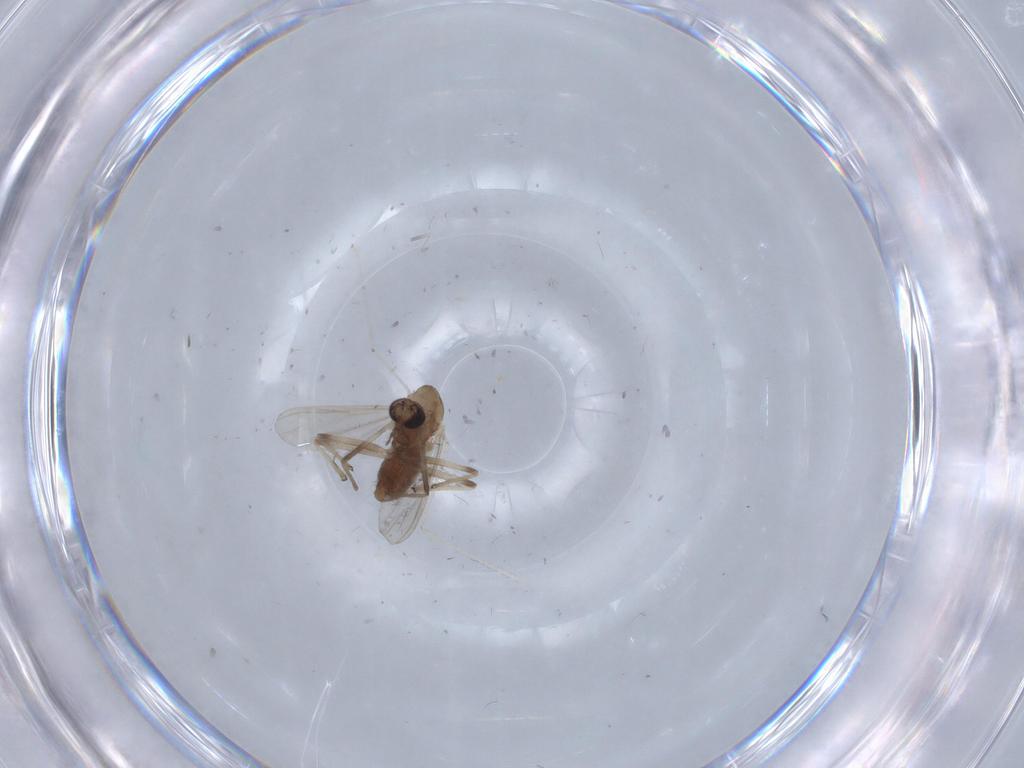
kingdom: Animalia
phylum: Arthropoda
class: Insecta
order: Diptera
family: Chironomidae
